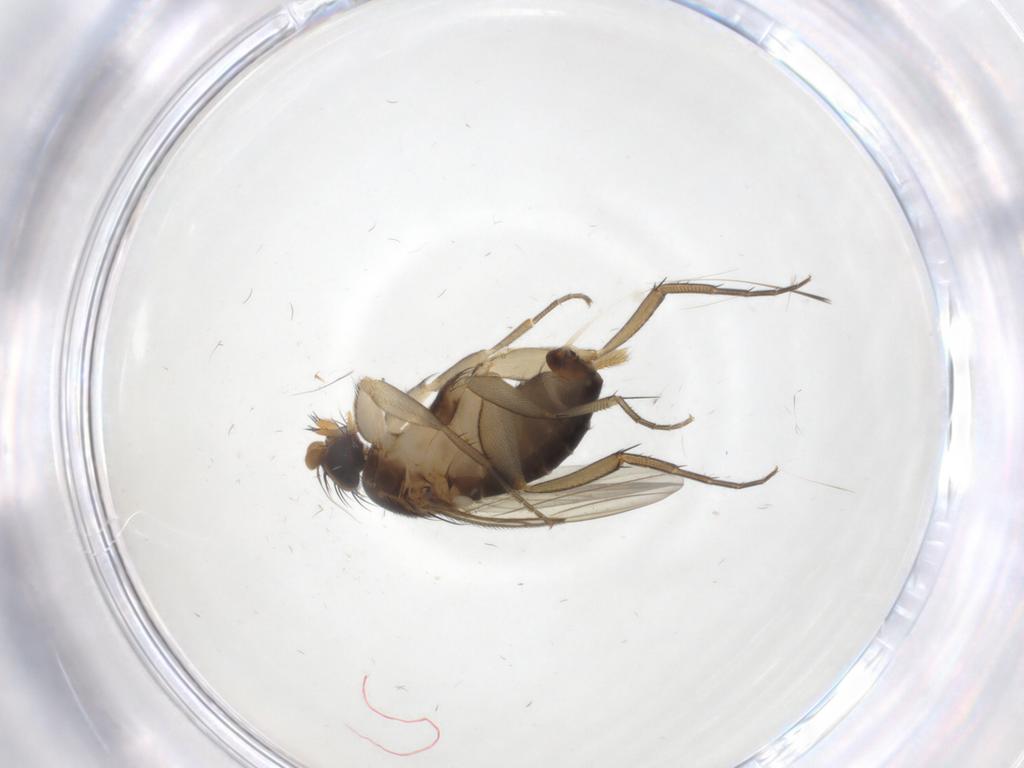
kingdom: Animalia
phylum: Arthropoda
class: Insecta
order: Diptera
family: Phoridae
